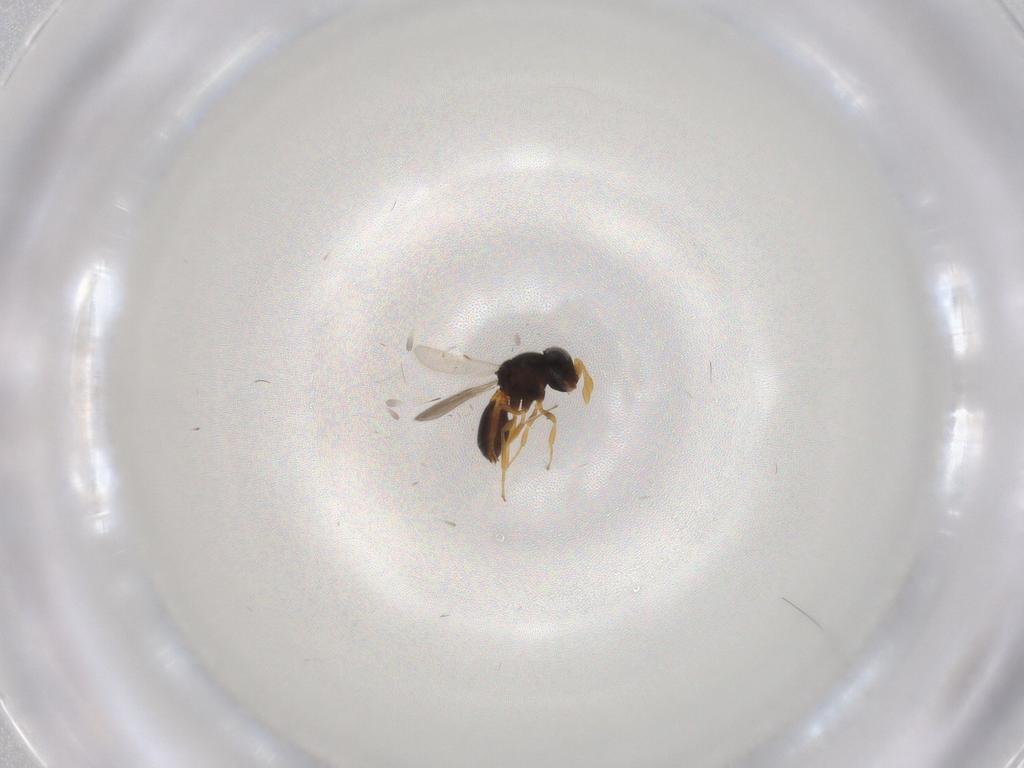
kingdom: Animalia
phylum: Arthropoda
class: Insecta
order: Hymenoptera
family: Scelionidae
